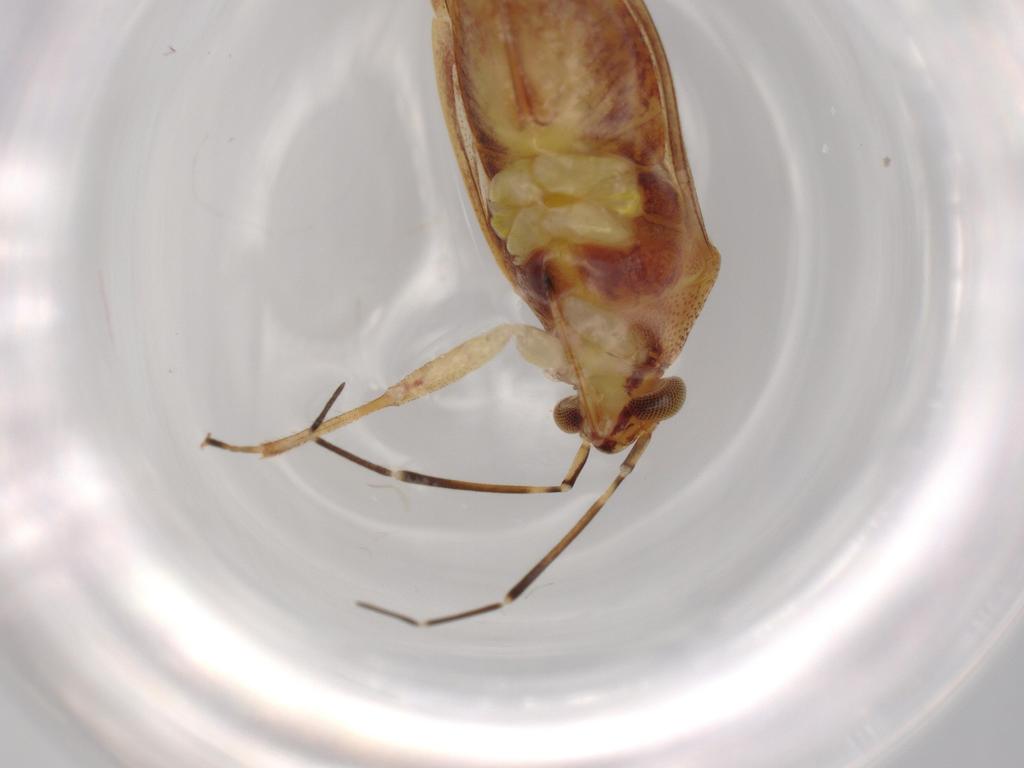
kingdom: Animalia
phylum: Arthropoda
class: Insecta
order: Hemiptera
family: Miridae
